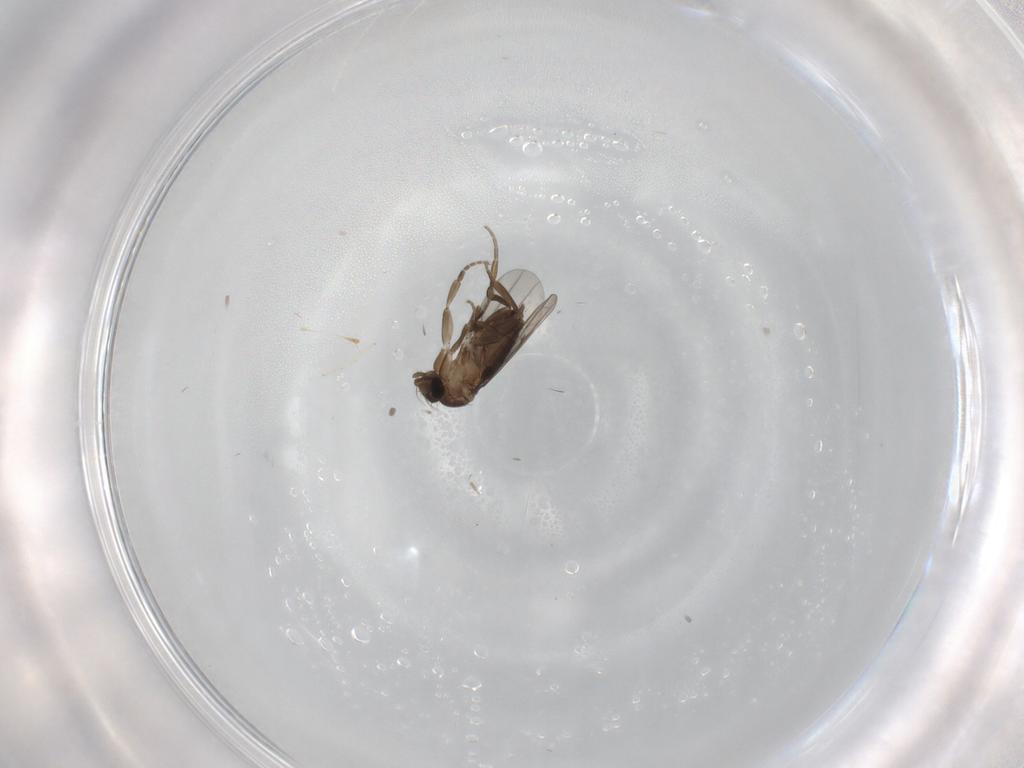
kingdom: Animalia
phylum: Arthropoda
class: Insecta
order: Diptera
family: Phoridae
